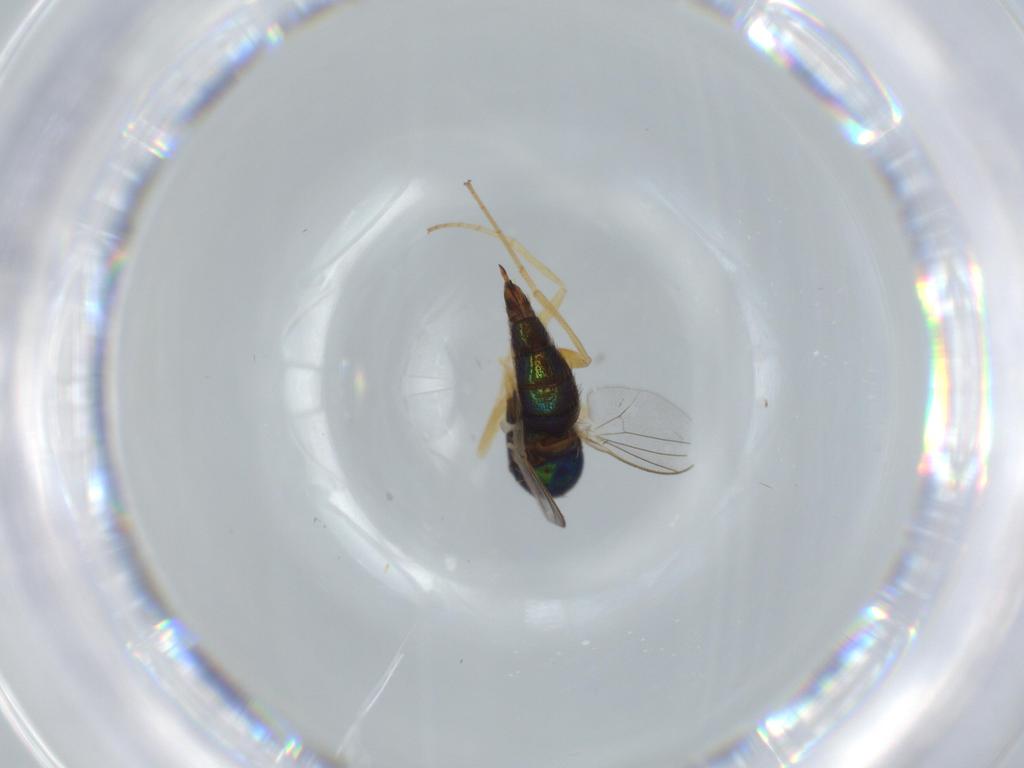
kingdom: Animalia
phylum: Arthropoda
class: Insecta
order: Diptera
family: Dolichopodidae
